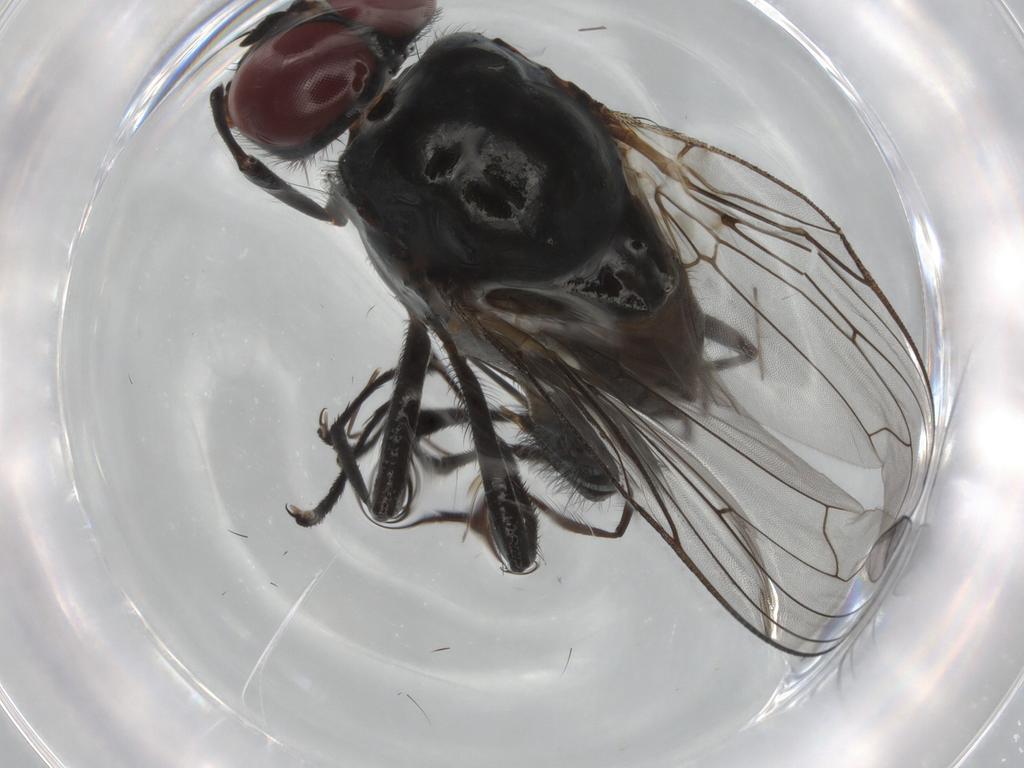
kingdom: Animalia
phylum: Arthropoda
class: Insecta
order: Diptera
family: Anthomyiidae
